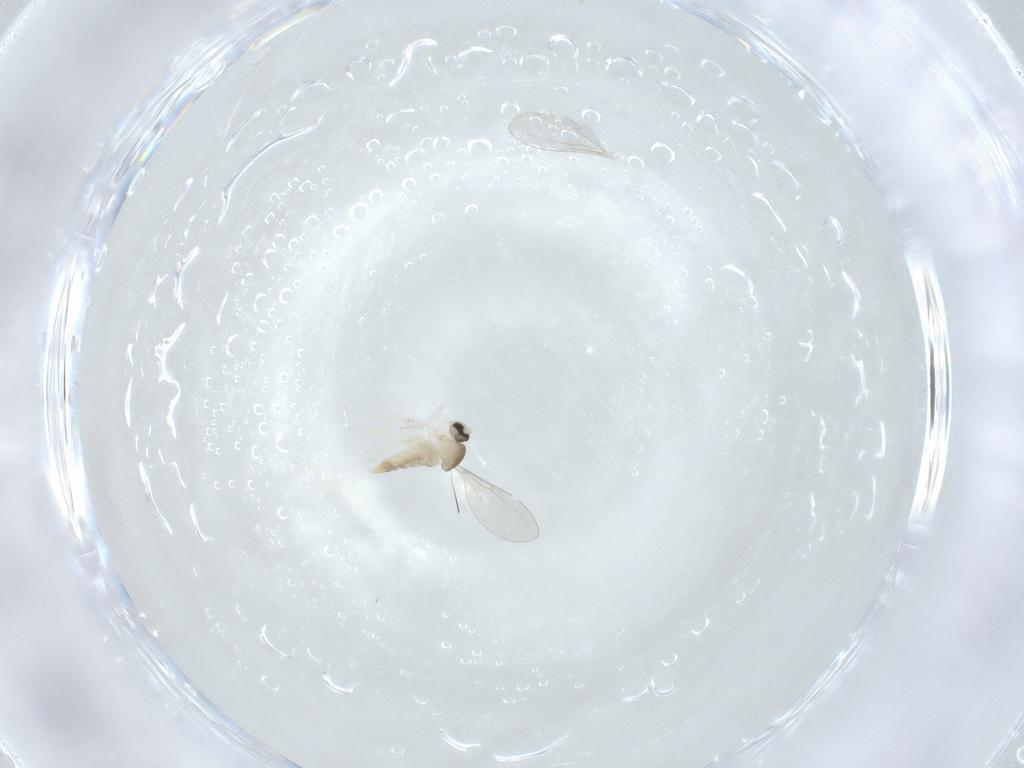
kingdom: Animalia
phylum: Arthropoda
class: Insecta
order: Diptera
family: Cecidomyiidae
